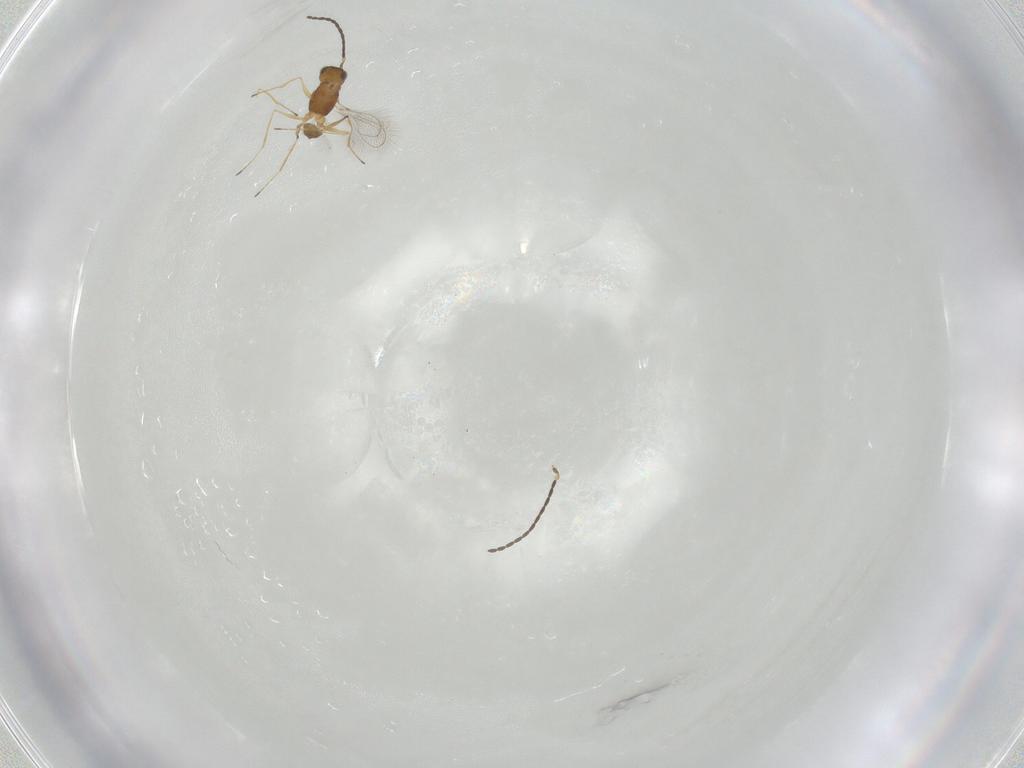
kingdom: Animalia
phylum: Arthropoda
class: Insecta
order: Hymenoptera
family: Mymaridae
